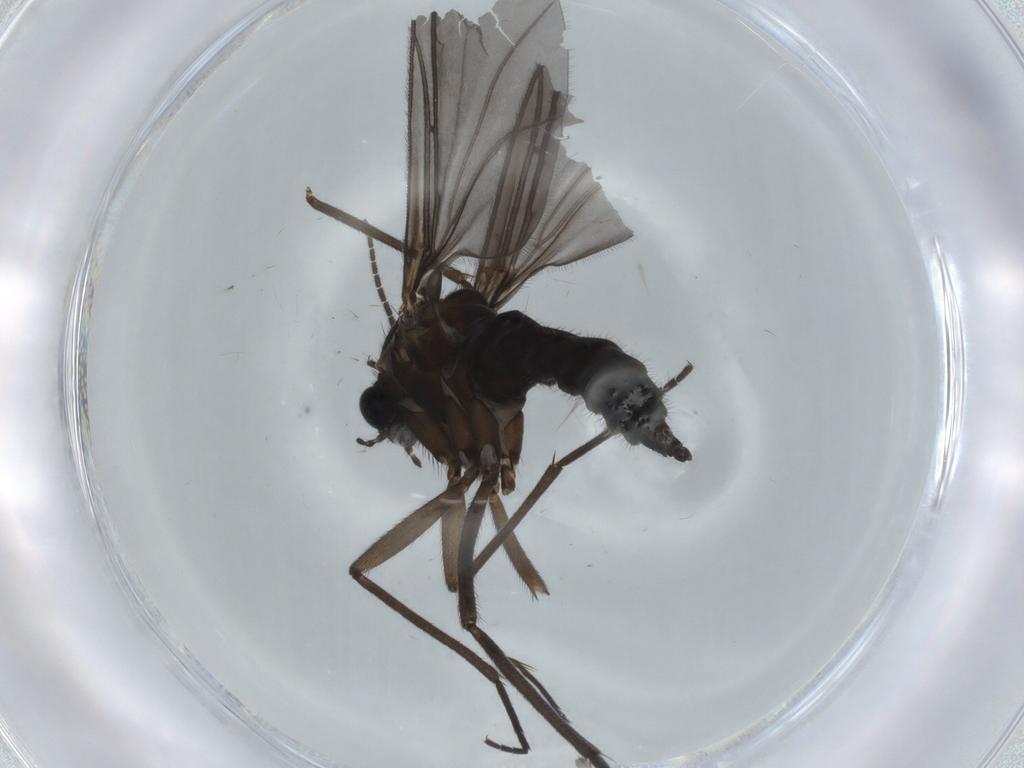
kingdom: Animalia
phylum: Arthropoda
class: Insecta
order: Diptera
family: Sciaridae
